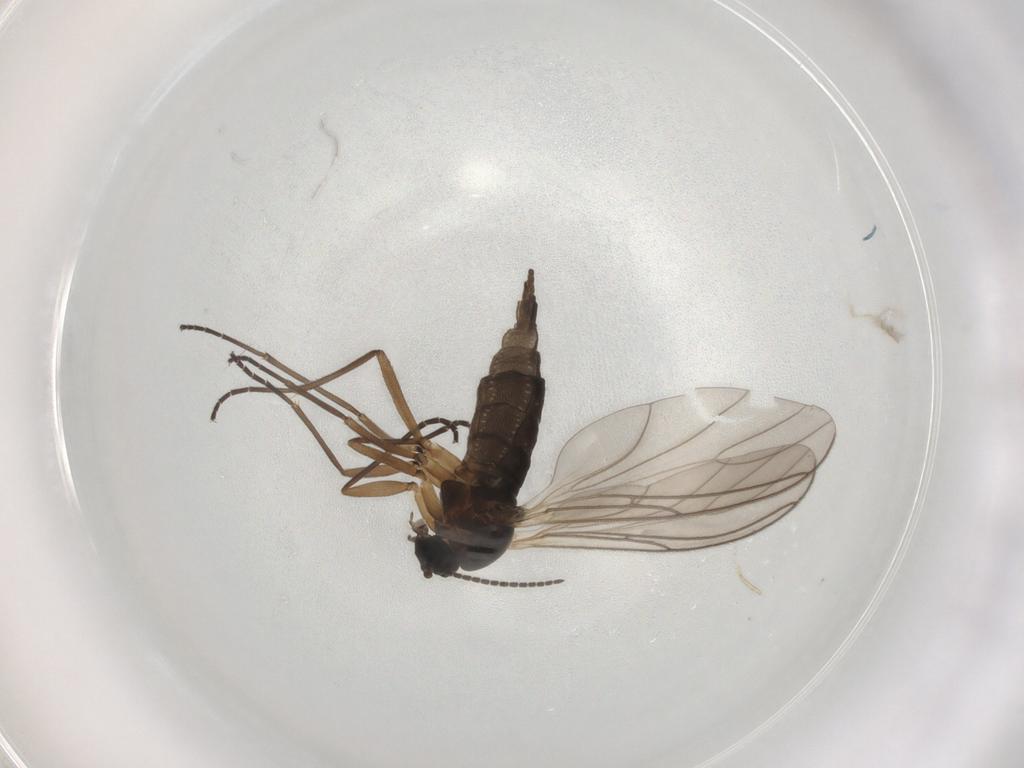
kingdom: Animalia
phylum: Arthropoda
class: Insecta
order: Diptera
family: Sciaridae
